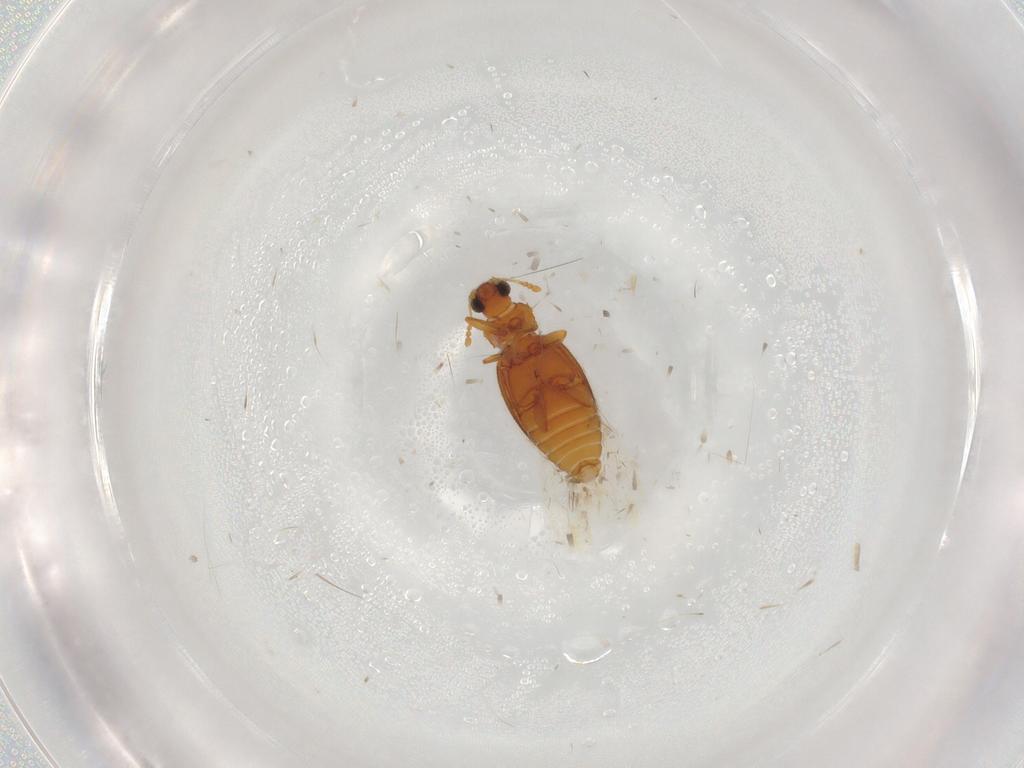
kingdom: Animalia
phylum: Arthropoda
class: Insecta
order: Coleoptera
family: Latridiidae
